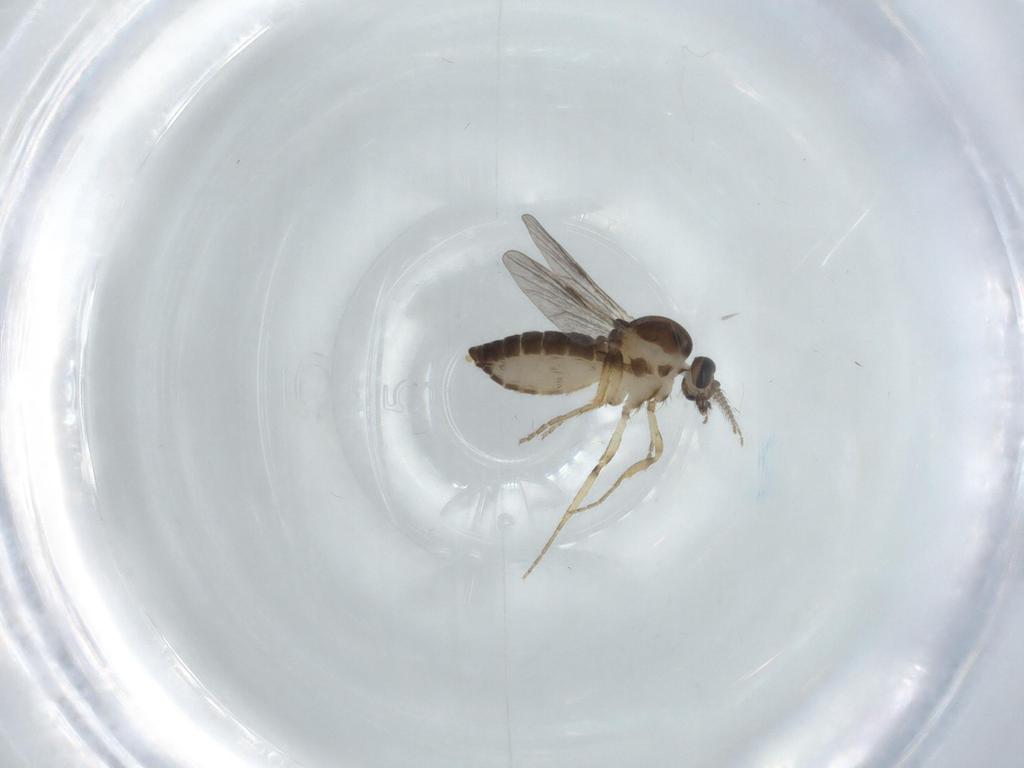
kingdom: Animalia
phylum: Arthropoda
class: Insecta
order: Diptera
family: Ceratopogonidae
